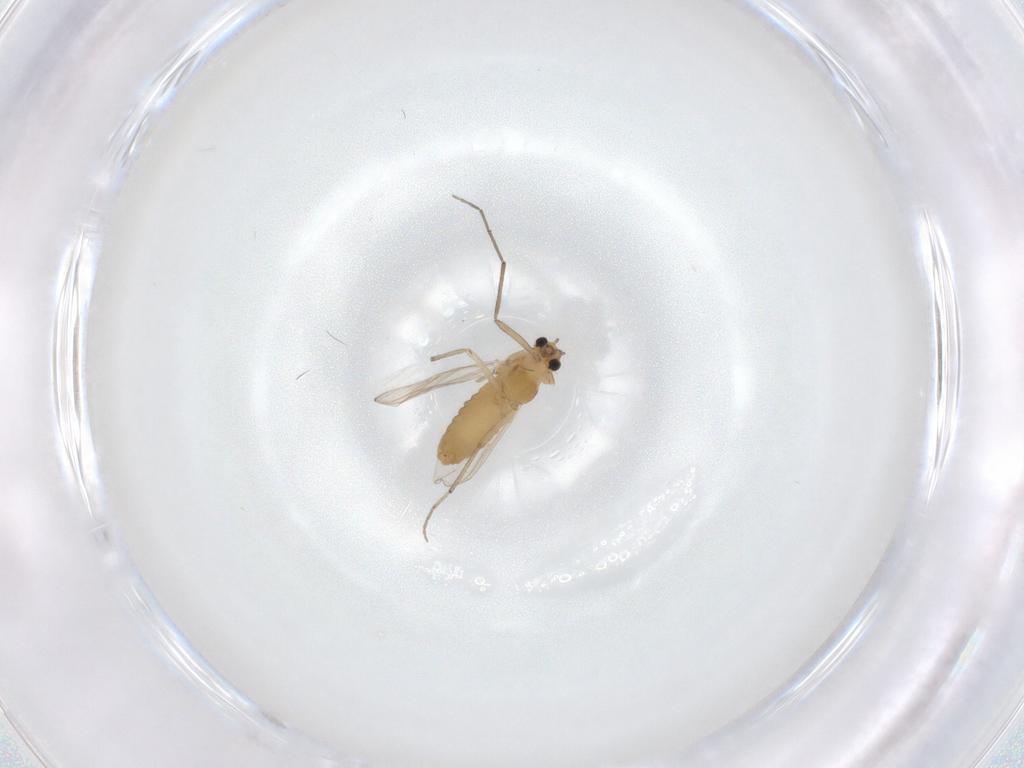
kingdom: Animalia
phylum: Arthropoda
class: Insecta
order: Diptera
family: Chironomidae
